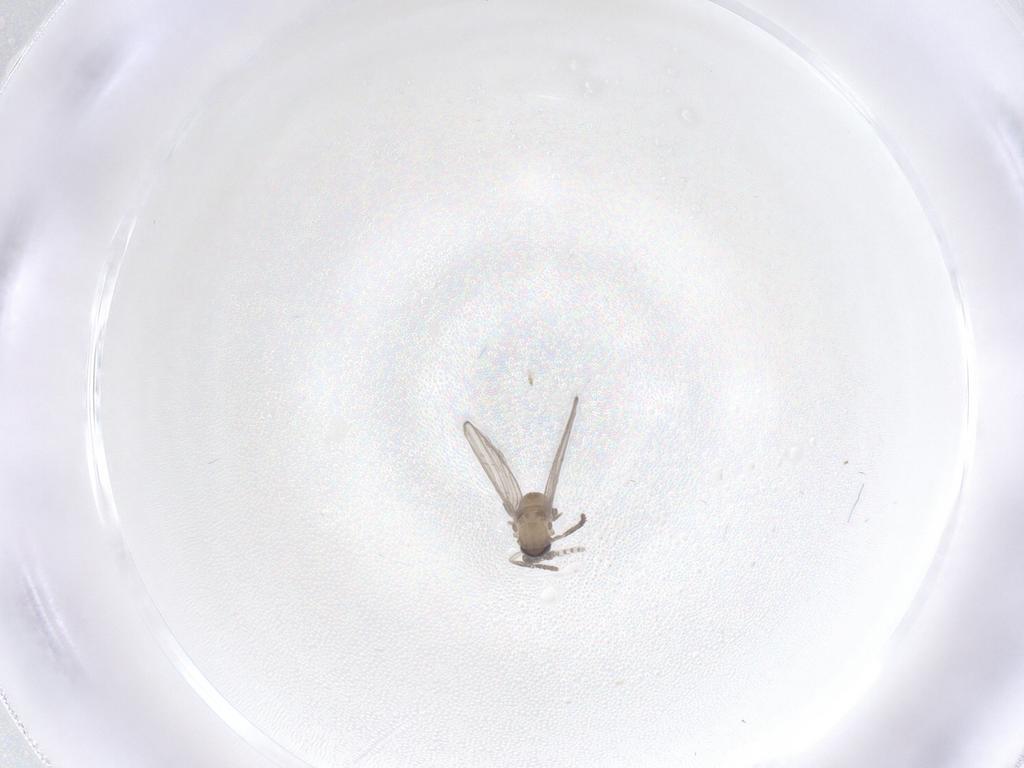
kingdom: Animalia
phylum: Arthropoda
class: Insecta
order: Diptera
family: Psychodidae
